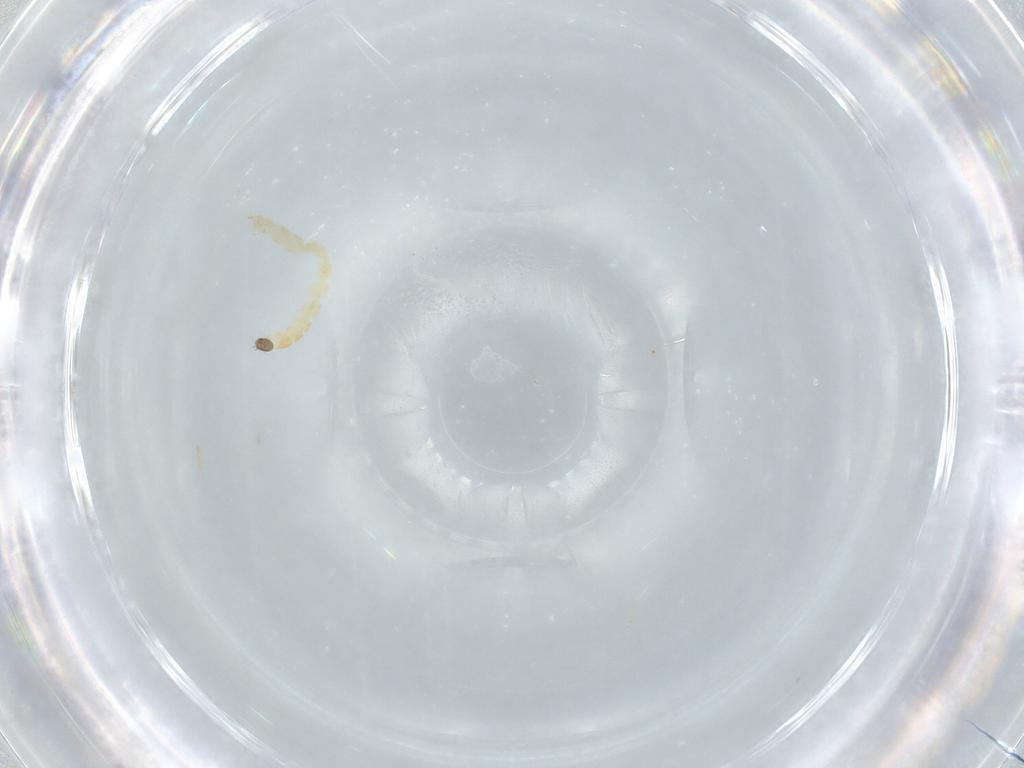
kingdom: Animalia
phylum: Arthropoda
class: Insecta
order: Diptera
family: Chironomidae
